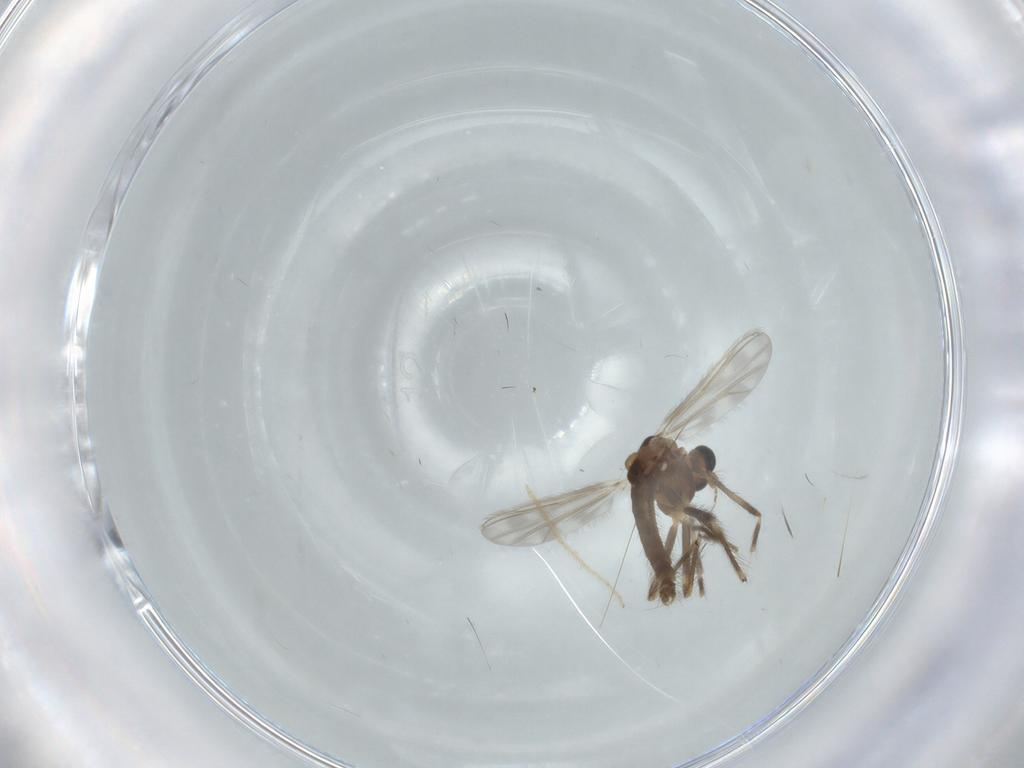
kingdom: Animalia
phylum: Arthropoda
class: Insecta
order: Diptera
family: Chironomidae
